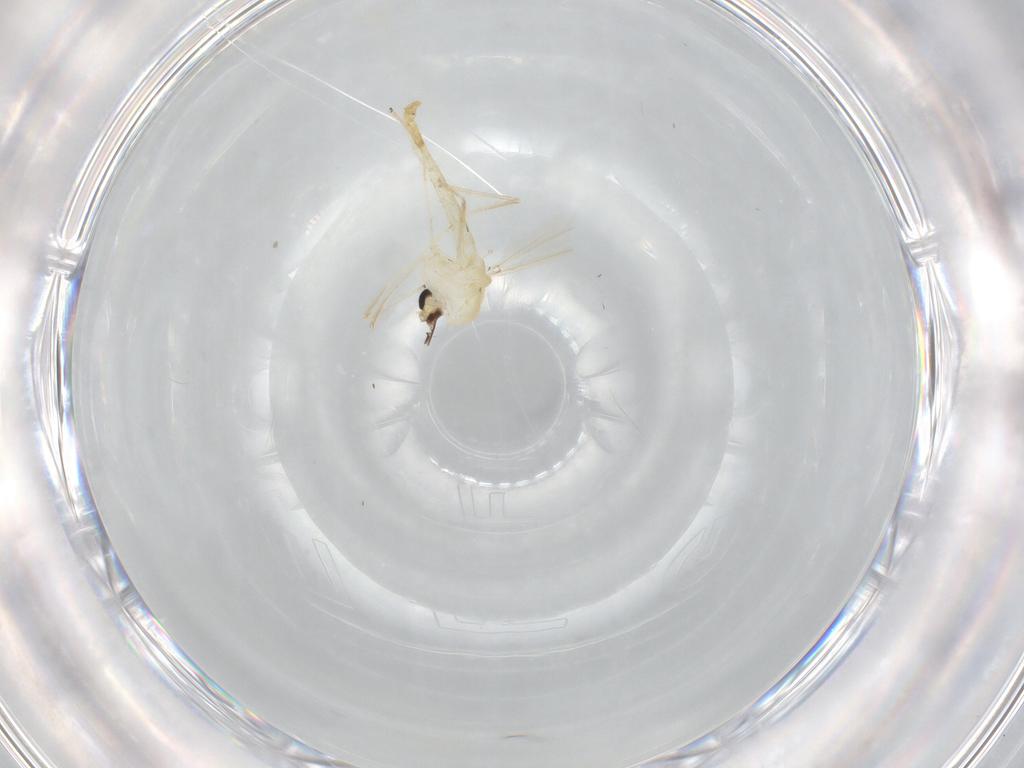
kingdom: Animalia
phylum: Arthropoda
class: Insecta
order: Diptera
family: Chironomidae
